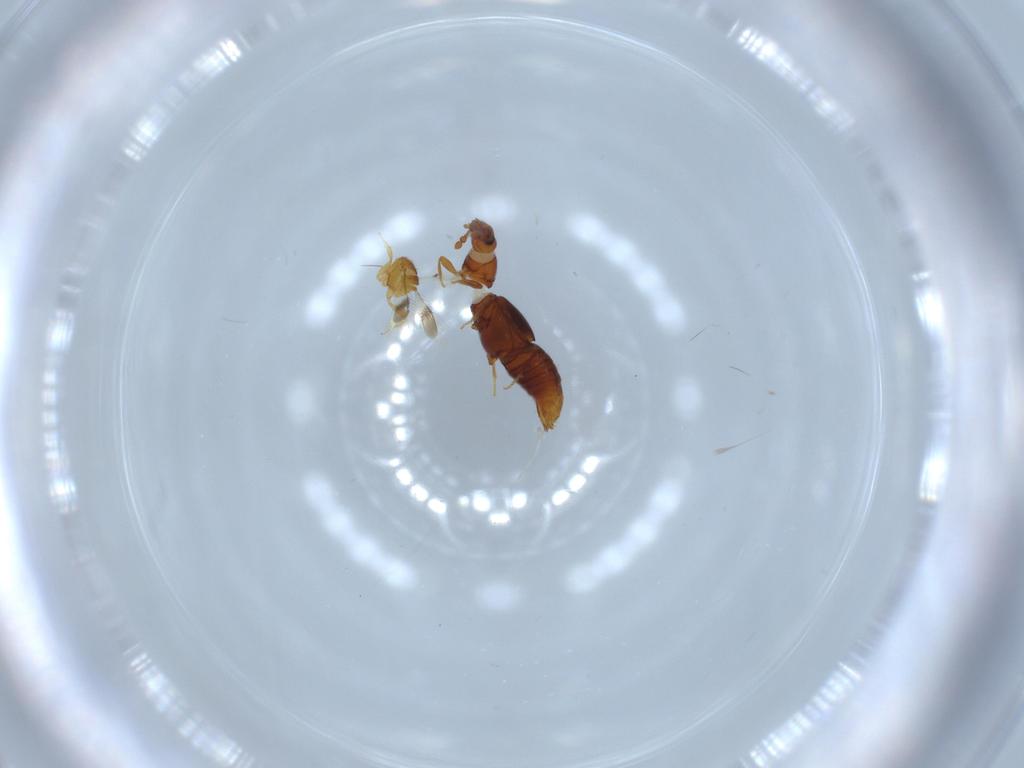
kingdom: Animalia
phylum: Arthropoda
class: Insecta
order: Coleoptera
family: Staphylinidae
